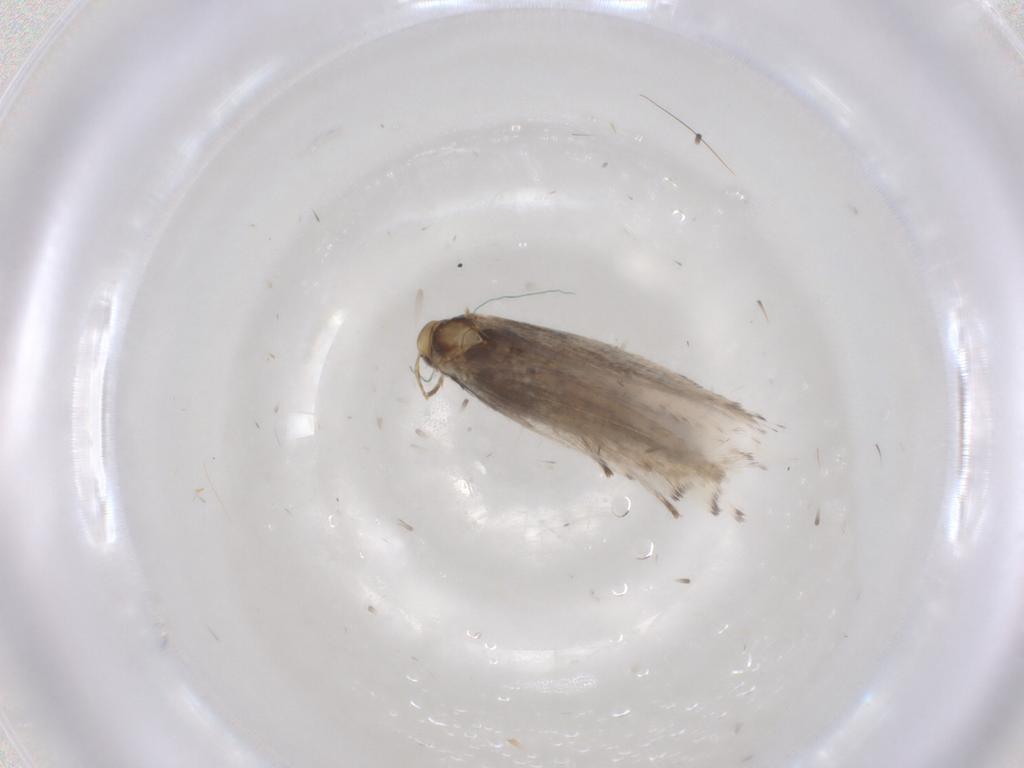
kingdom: Animalia
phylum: Arthropoda
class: Insecta
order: Lepidoptera
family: Gracillariidae
